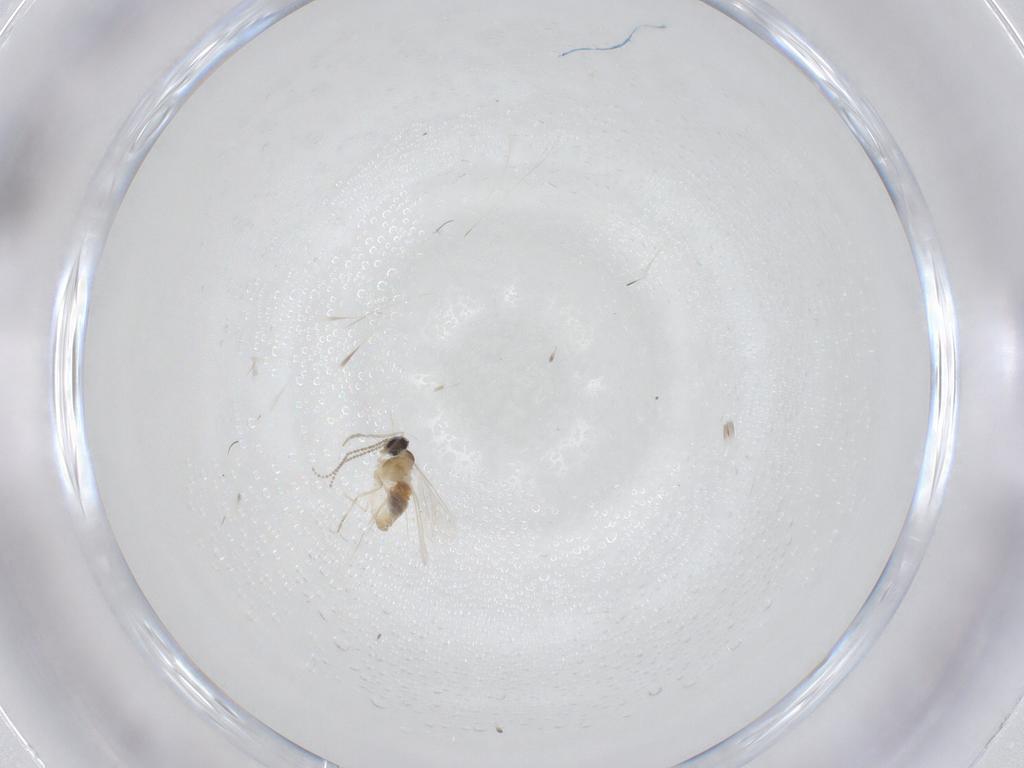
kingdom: Animalia
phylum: Arthropoda
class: Insecta
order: Diptera
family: Cecidomyiidae
